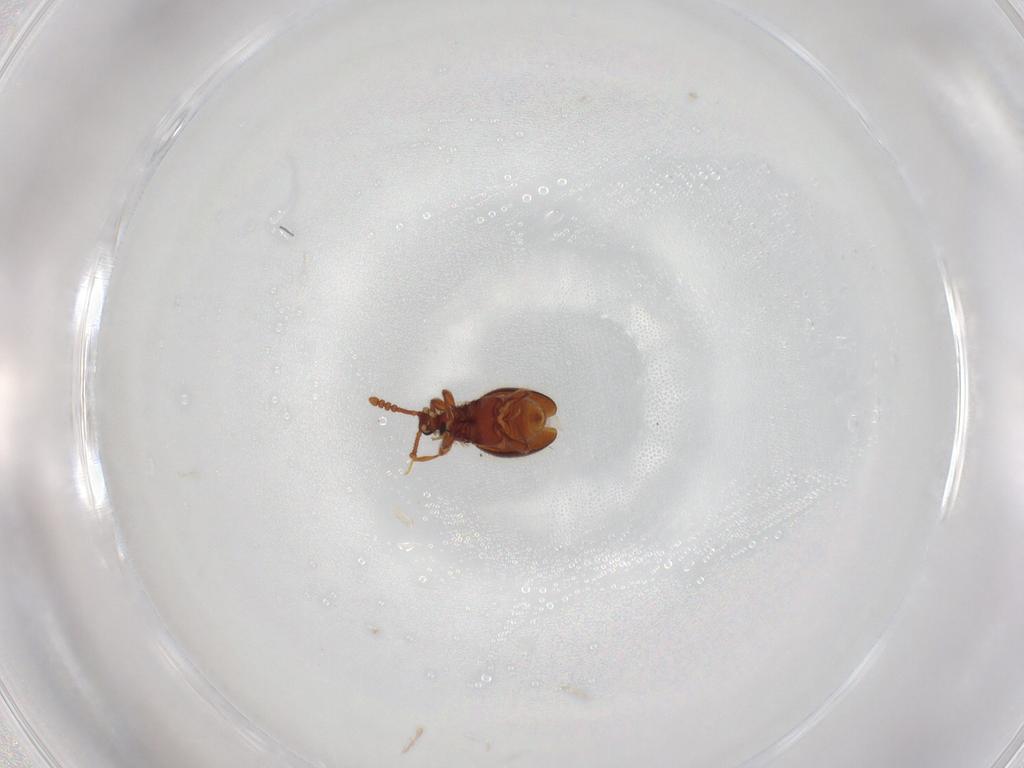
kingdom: Animalia
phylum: Arthropoda
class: Insecta
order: Coleoptera
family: Staphylinidae
